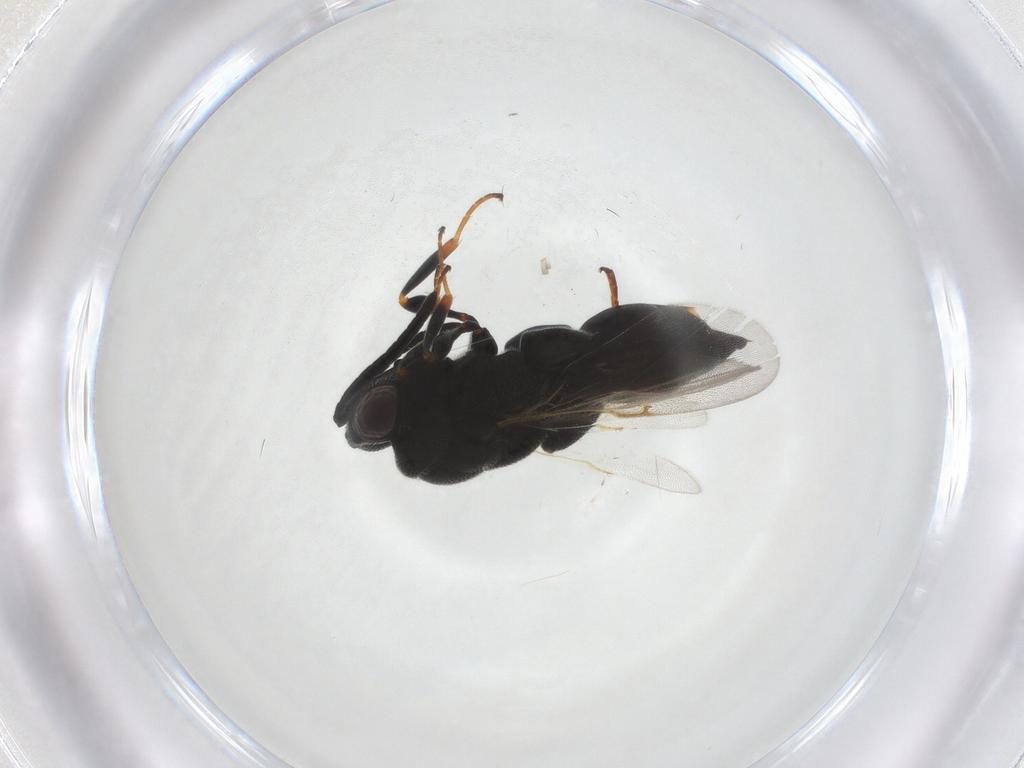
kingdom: Animalia
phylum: Arthropoda
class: Insecta
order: Hymenoptera
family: Chalcididae
